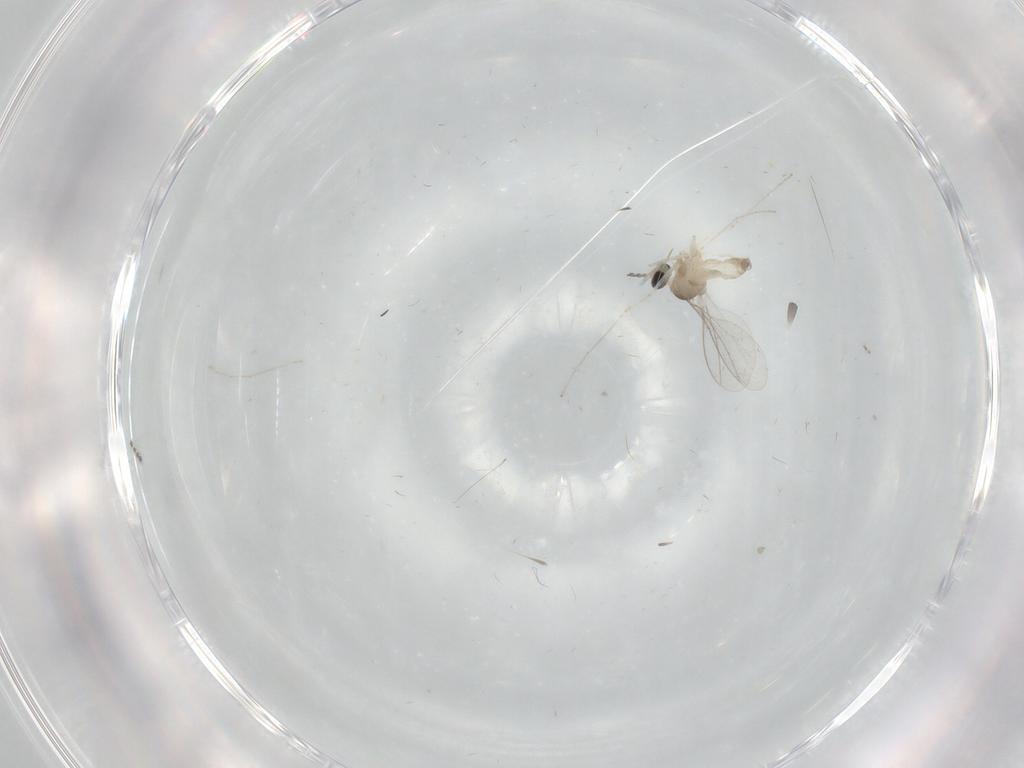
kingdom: Animalia
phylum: Arthropoda
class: Insecta
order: Diptera
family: Cecidomyiidae
